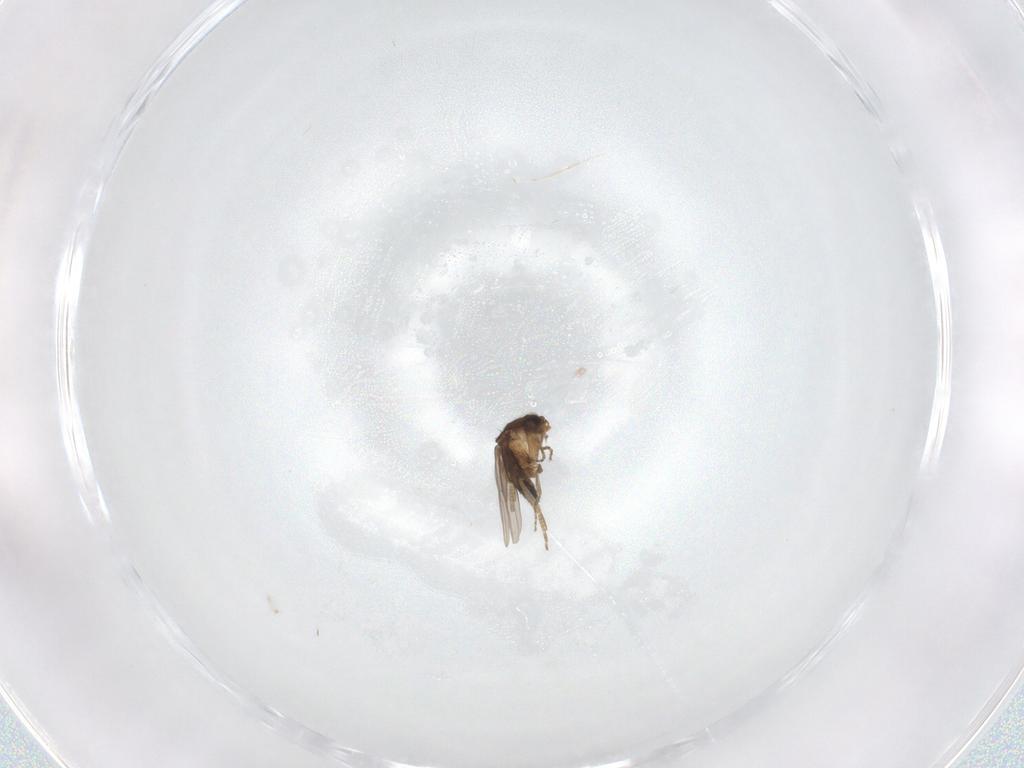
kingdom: Animalia
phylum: Arthropoda
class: Insecta
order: Diptera
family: Phoridae
